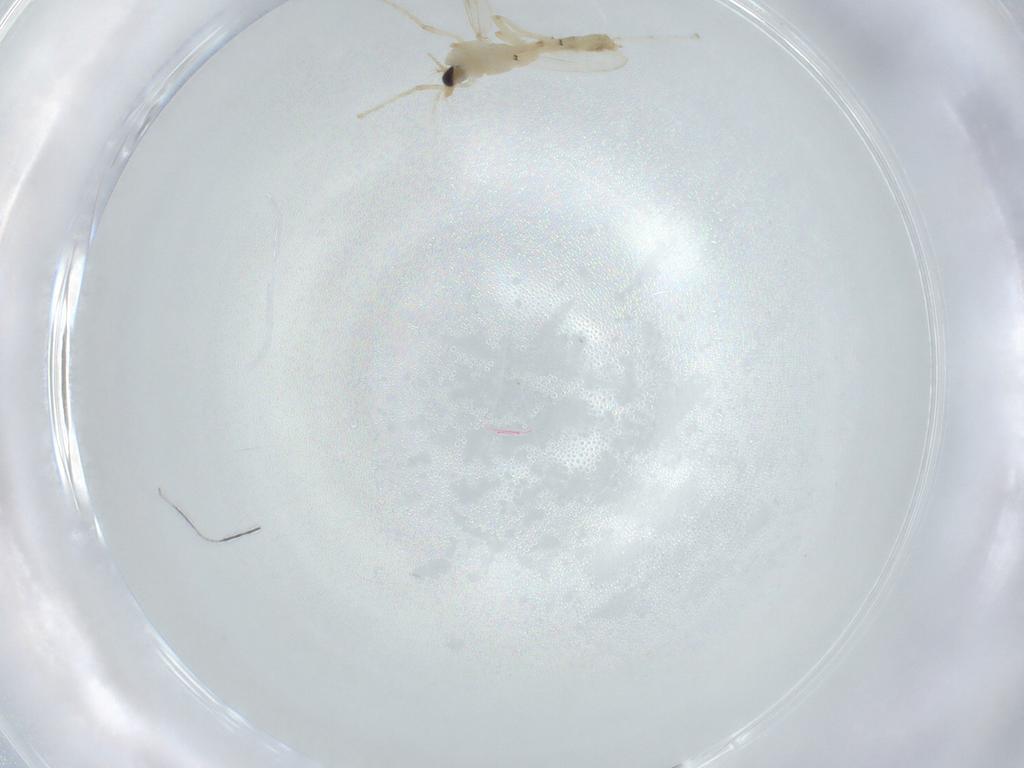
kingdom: Animalia
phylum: Arthropoda
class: Insecta
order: Diptera
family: Chironomidae
